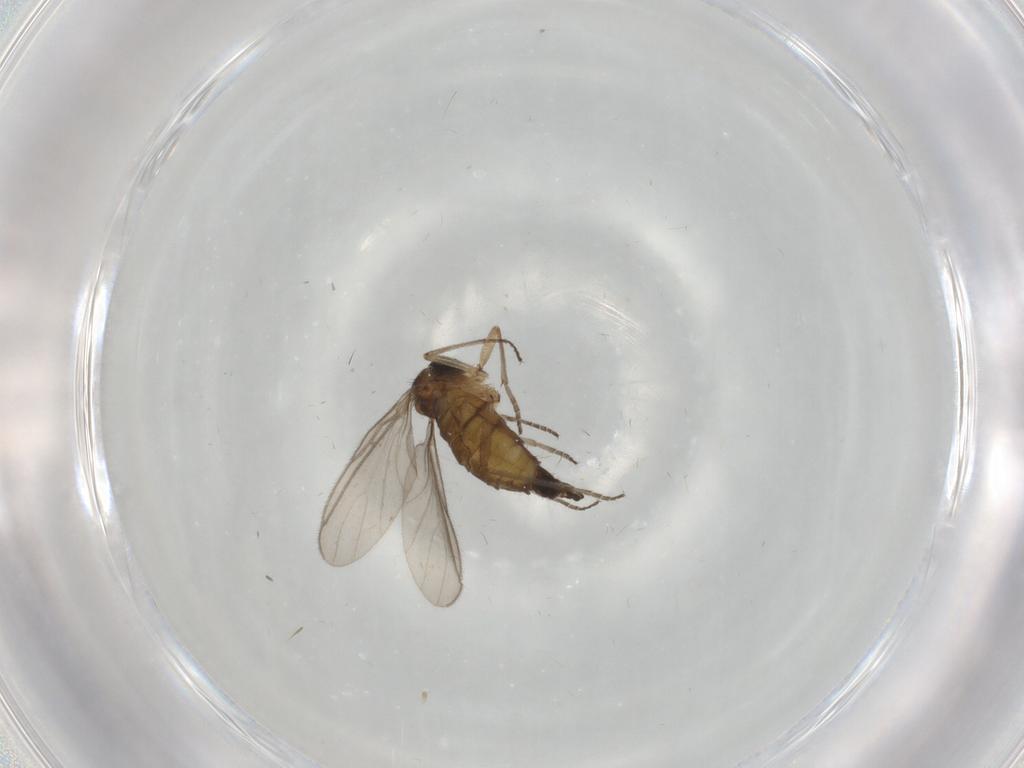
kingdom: Animalia
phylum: Arthropoda
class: Insecta
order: Diptera
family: Sciaridae
